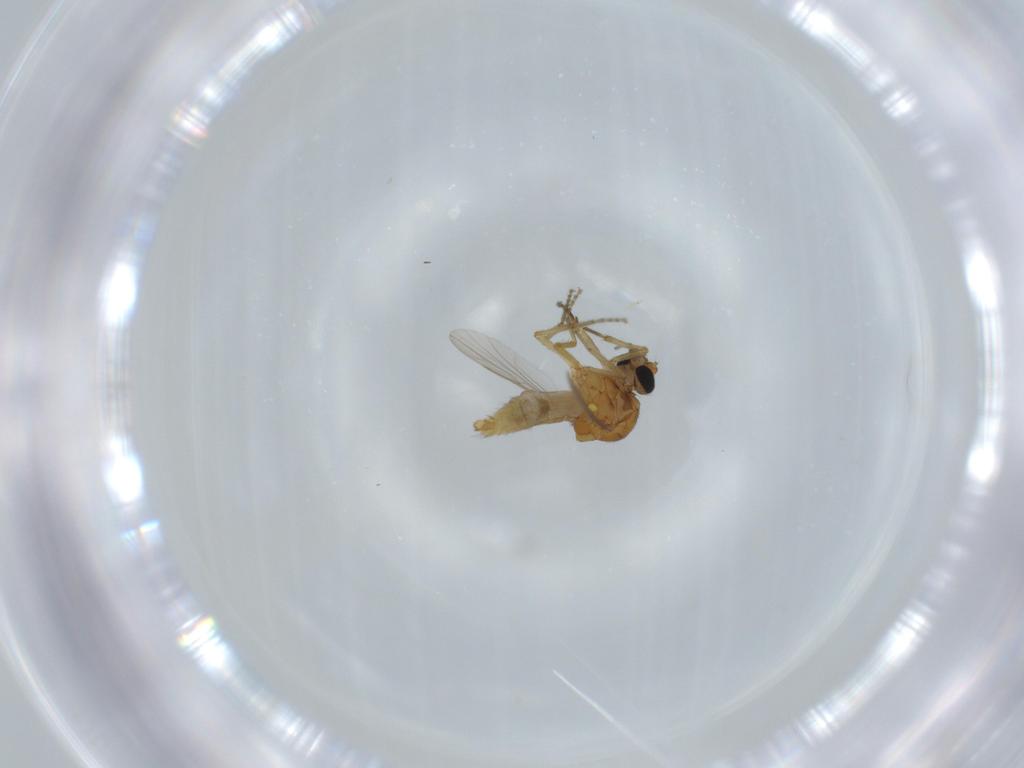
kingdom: Animalia
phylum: Arthropoda
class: Insecta
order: Diptera
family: Ceratopogonidae
